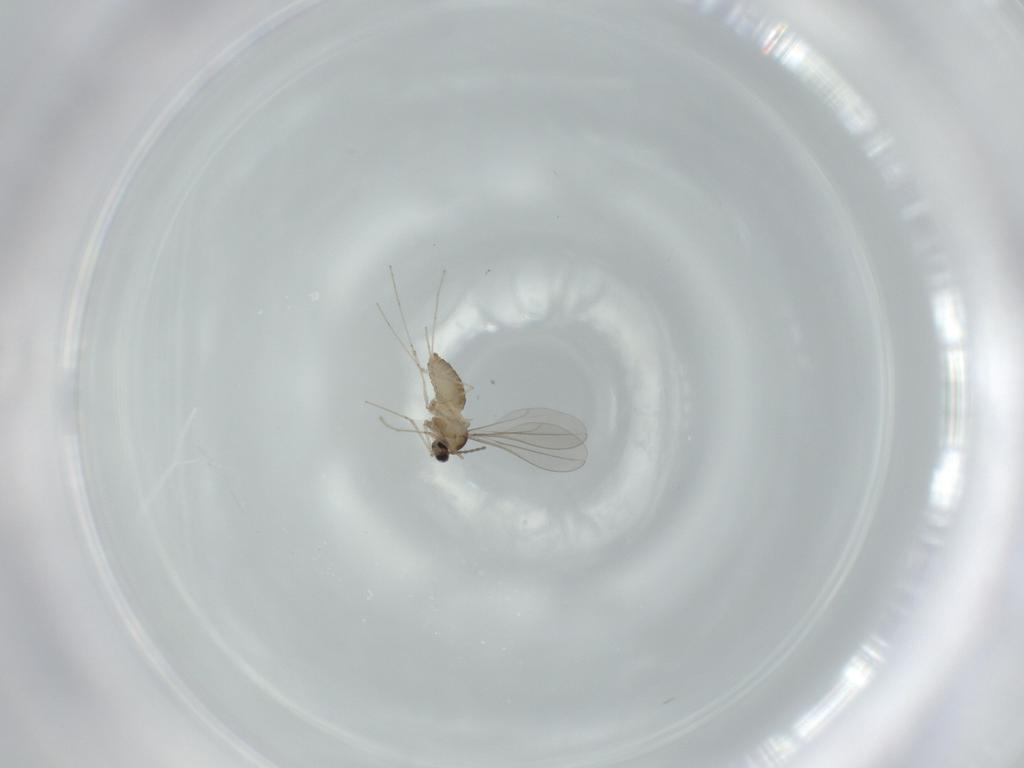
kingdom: Animalia
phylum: Arthropoda
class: Insecta
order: Diptera
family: Cecidomyiidae
